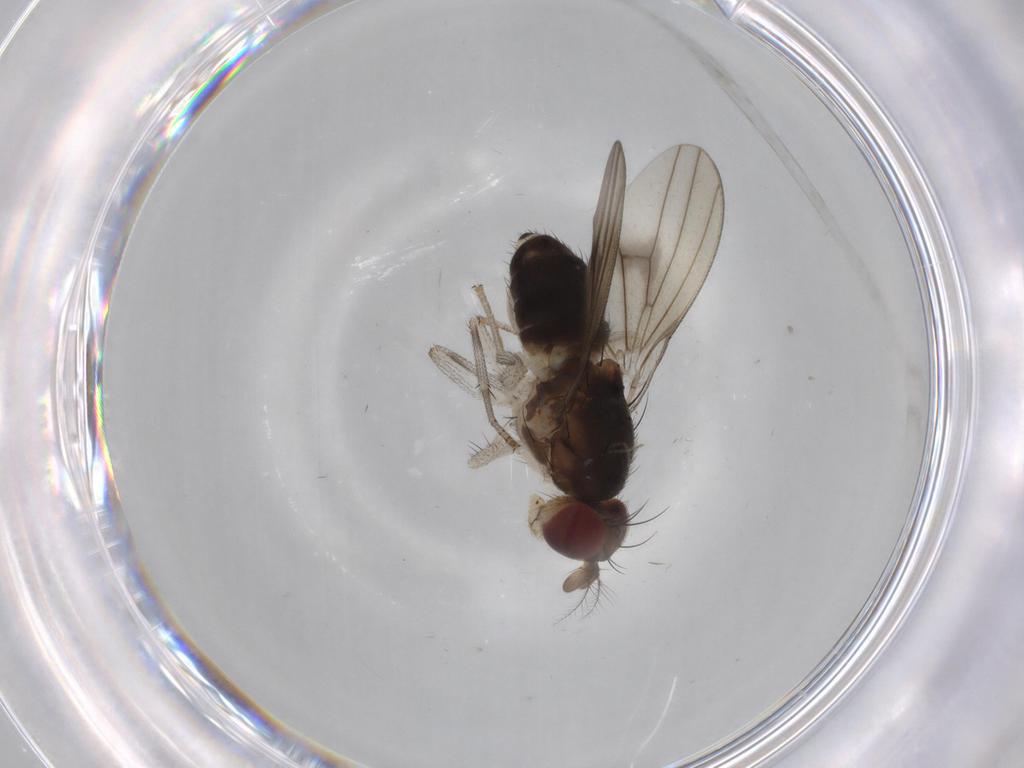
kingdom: Animalia
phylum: Arthropoda
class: Insecta
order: Diptera
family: Lauxaniidae
